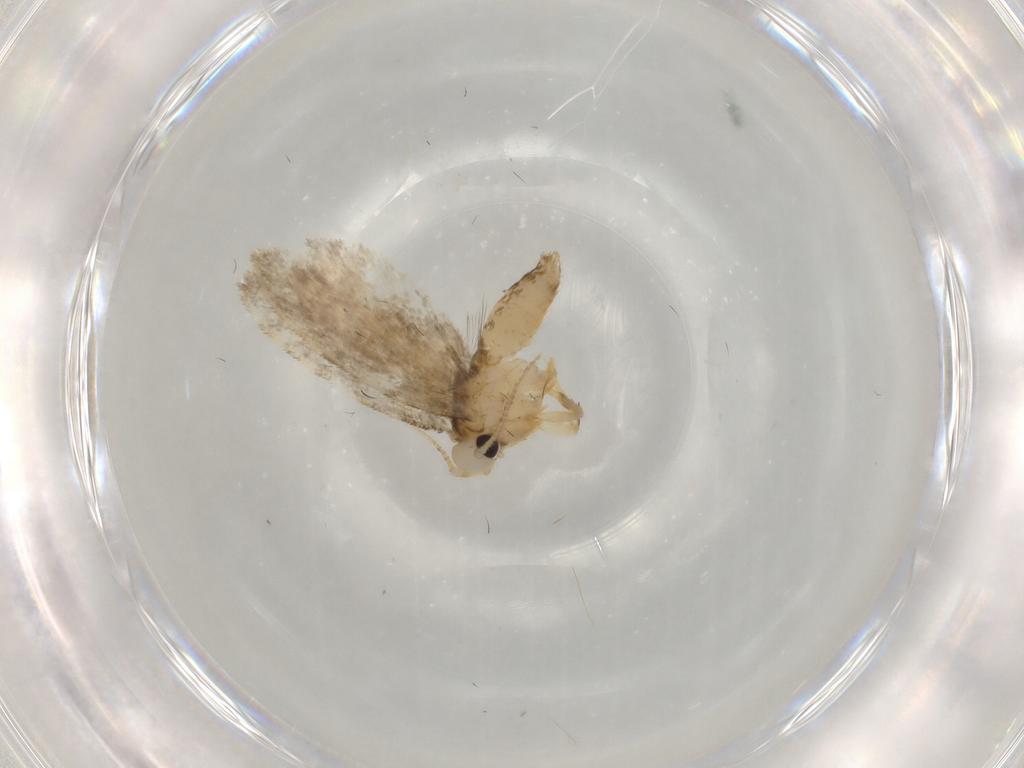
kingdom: Animalia
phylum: Arthropoda
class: Insecta
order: Lepidoptera
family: Psychidae
